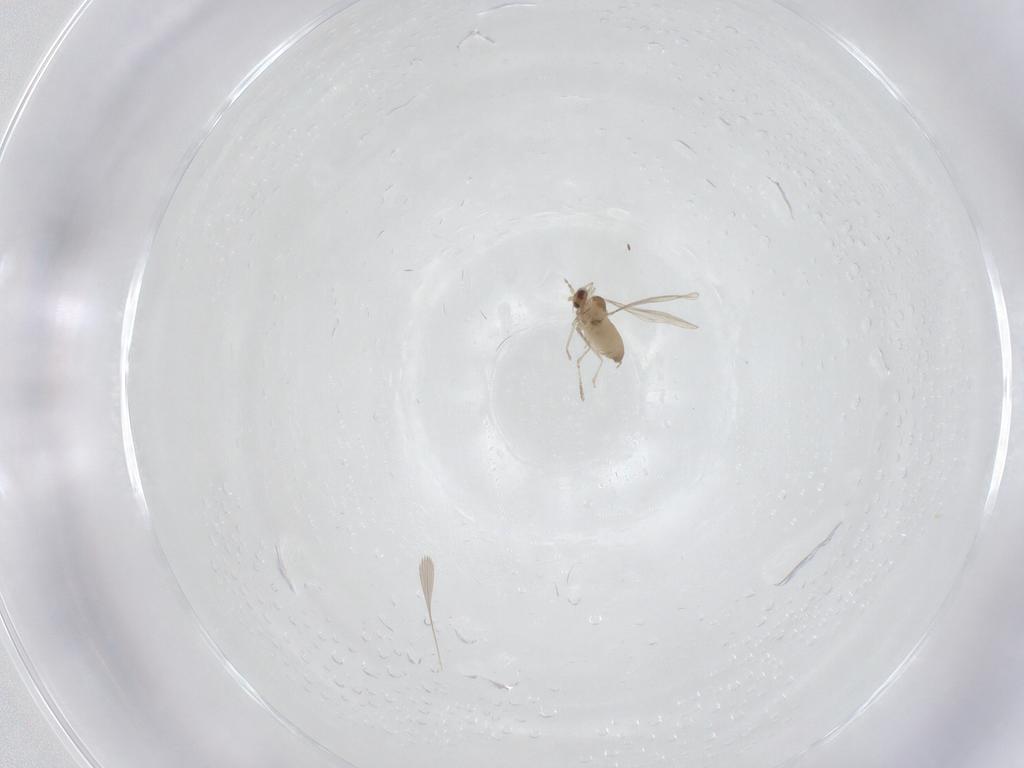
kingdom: Animalia
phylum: Arthropoda
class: Insecta
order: Diptera
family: Cecidomyiidae
